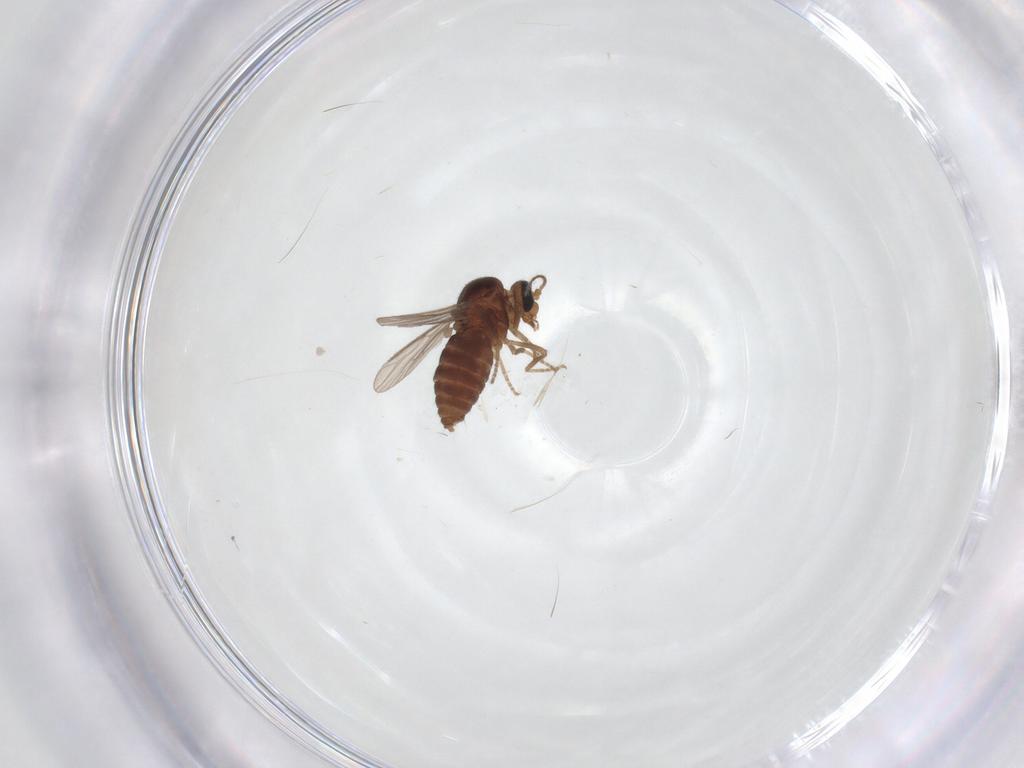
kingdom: Animalia
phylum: Arthropoda
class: Insecta
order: Diptera
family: Ceratopogonidae
